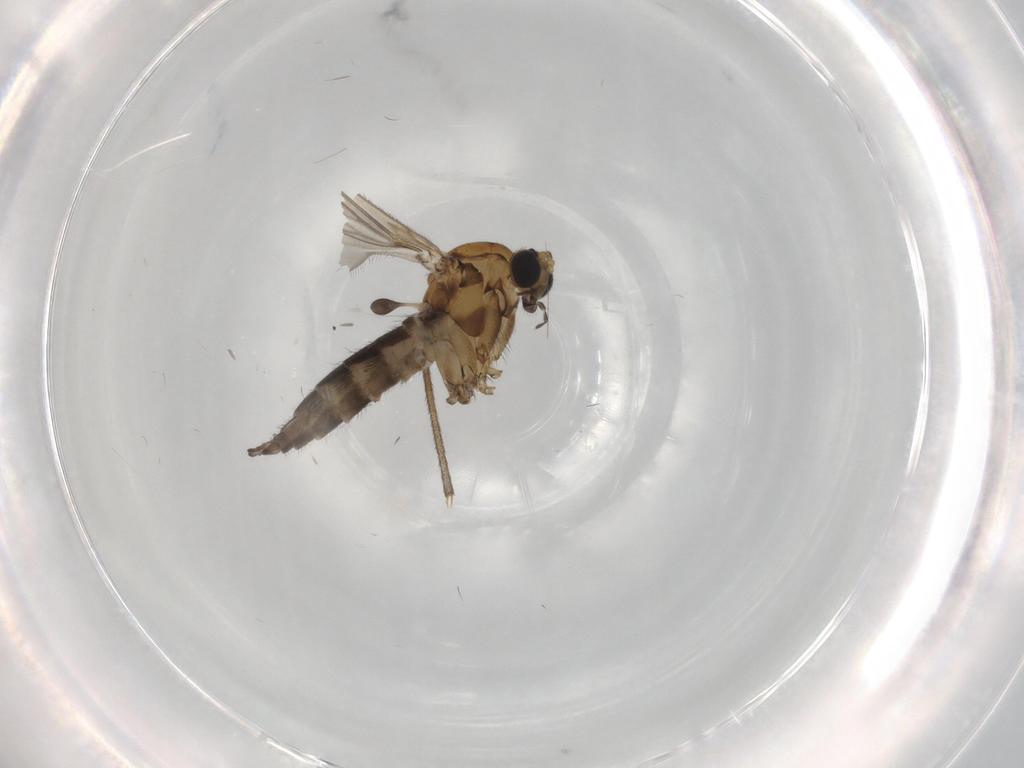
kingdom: Animalia
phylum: Arthropoda
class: Insecta
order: Diptera
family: Sciaridae
